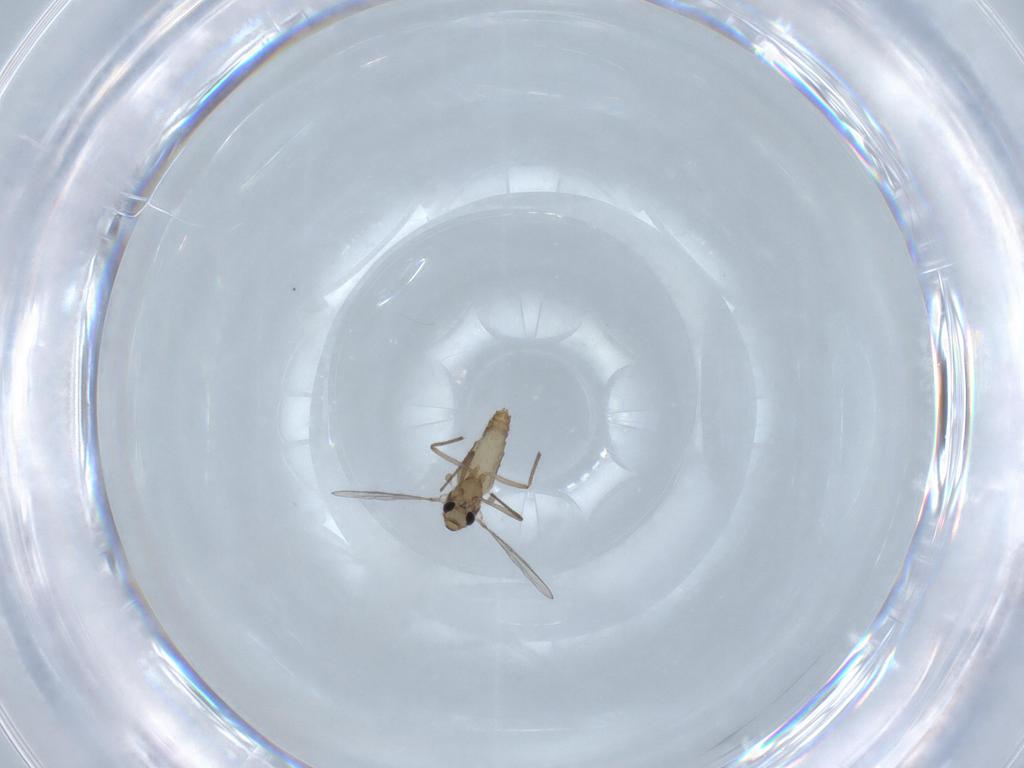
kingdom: Animalia
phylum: Arthropoda
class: Insecta
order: Diptera
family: Chironomidae
